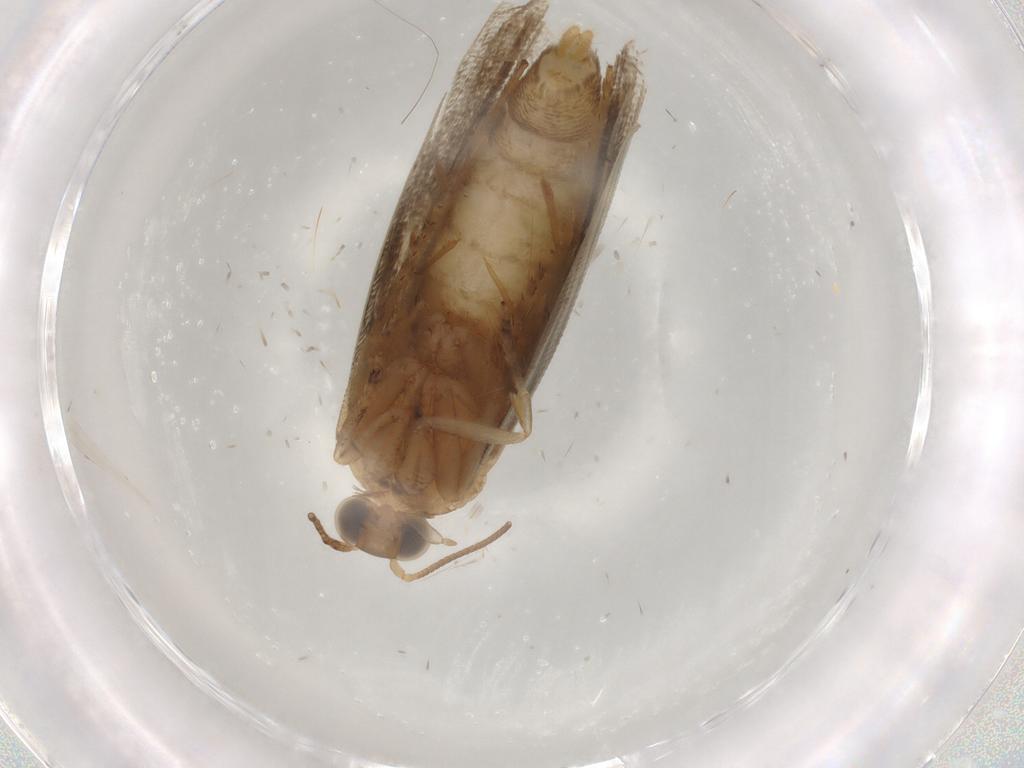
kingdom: Animalia
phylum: Arthropoda
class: Insecta
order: Lepidoptera
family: Tortricidae
